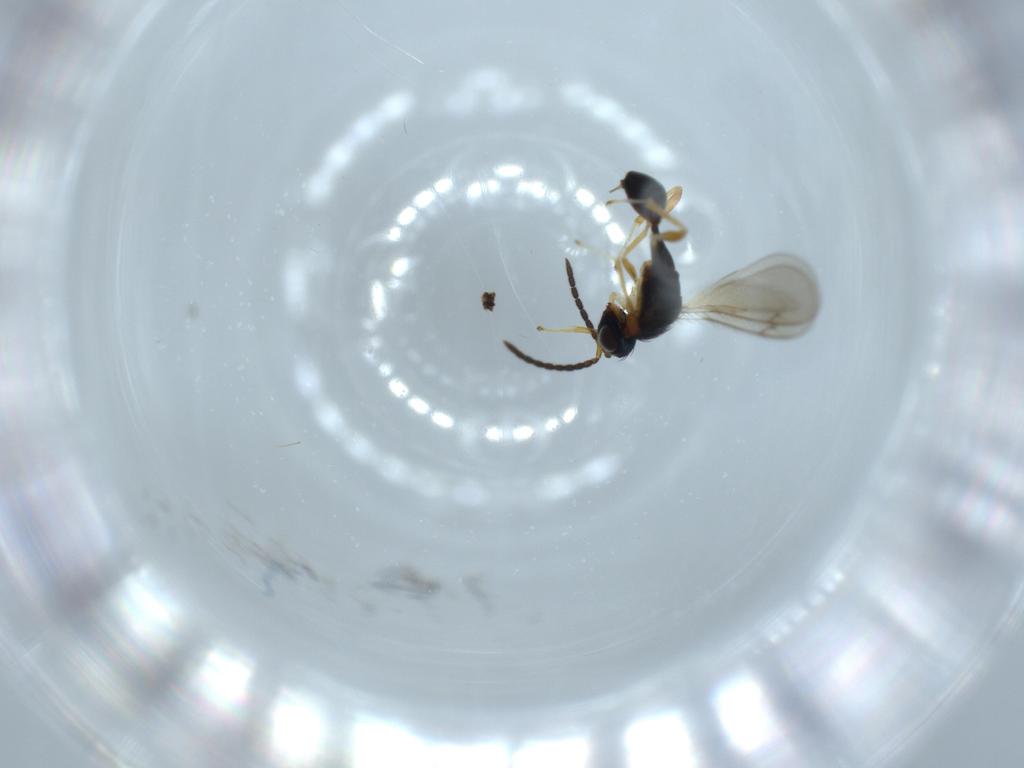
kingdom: Animalia
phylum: Arthropoda
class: Insecta
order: Hymenoptera
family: Diparidae
